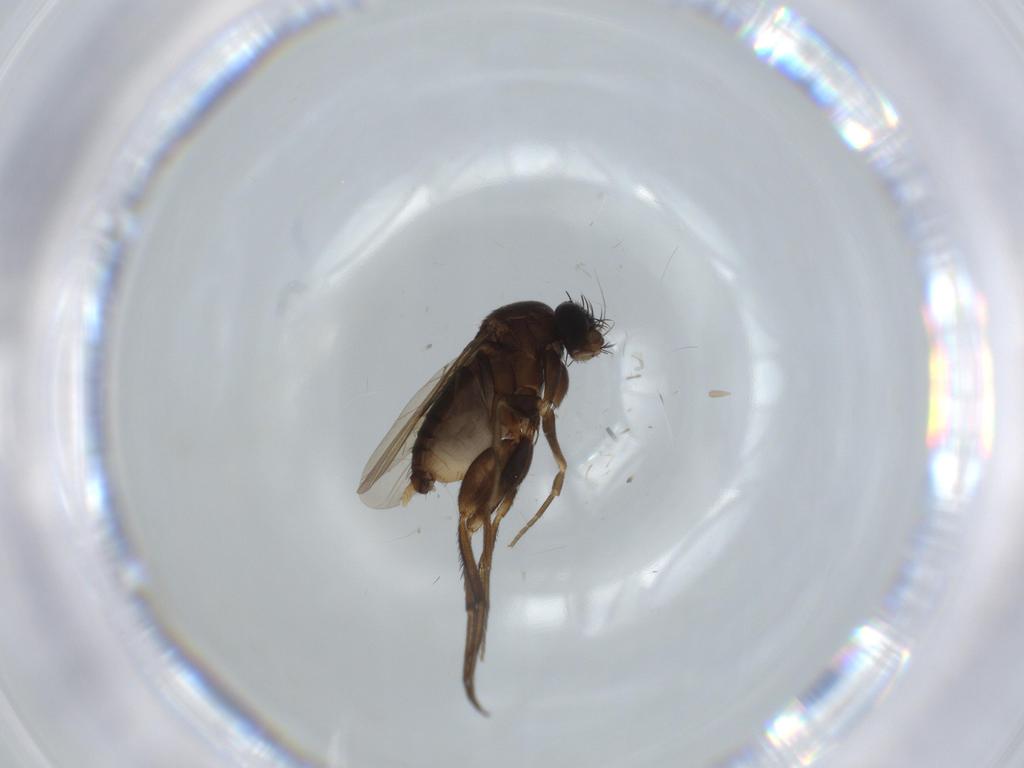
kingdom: Animalia
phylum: Arthropoda
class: Insecta
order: Diptera
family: Phoridae
